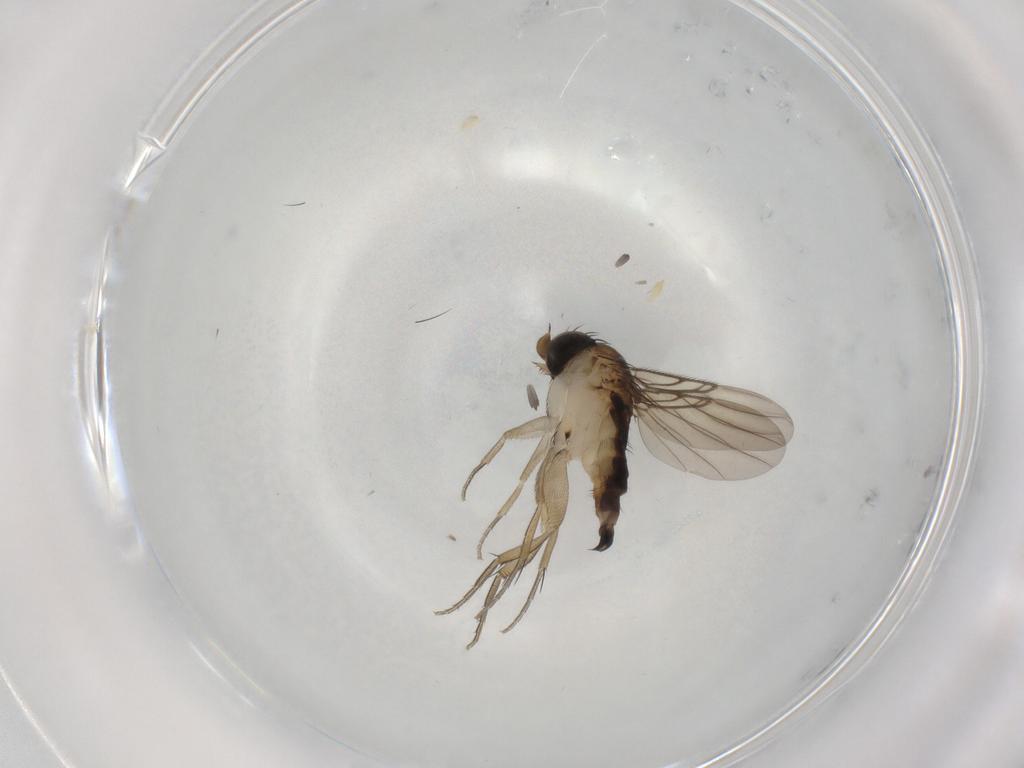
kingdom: Animalia
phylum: Arthropoda
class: Insecta
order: Diptera
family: Phoridae
